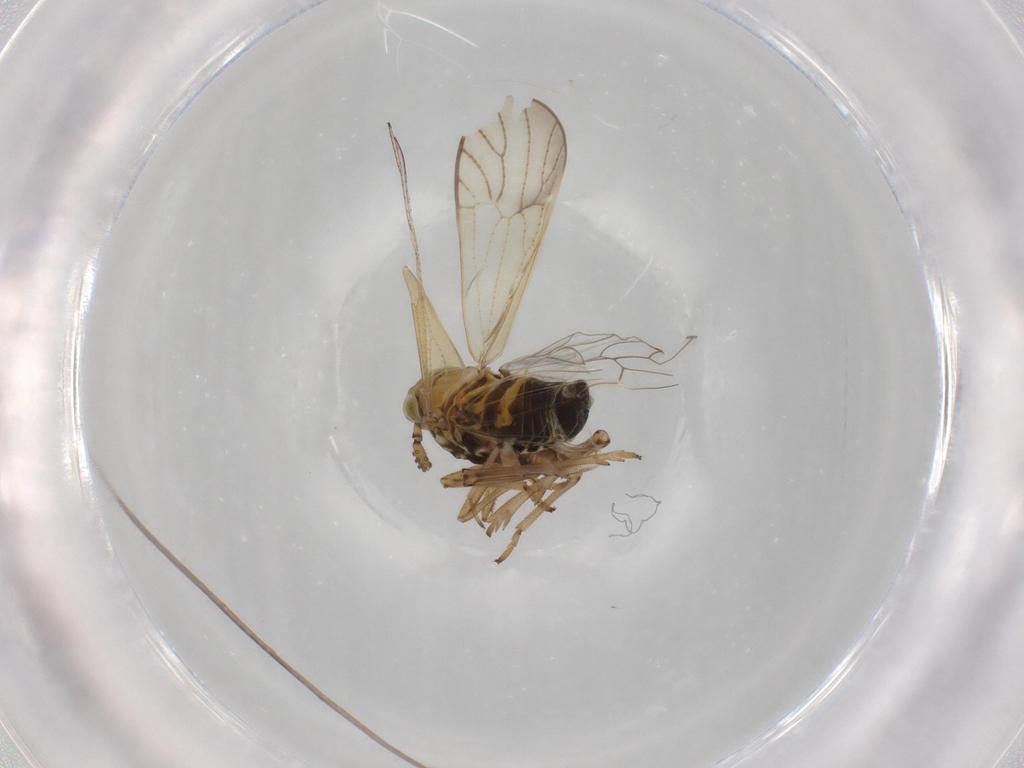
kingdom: Animalia
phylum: Arthropoda
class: Insecta
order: Hemiptera
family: Delphacidae
